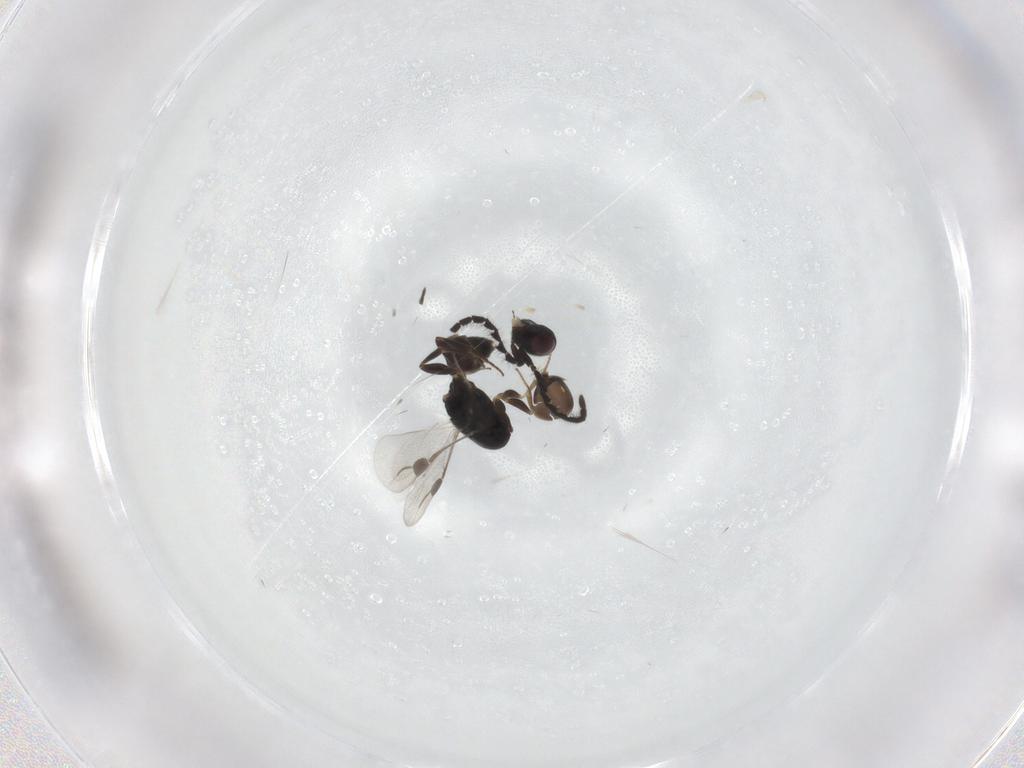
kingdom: Animalia
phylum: Arthropoda
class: Insecta
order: Hymenoptera
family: Megaspilidae
